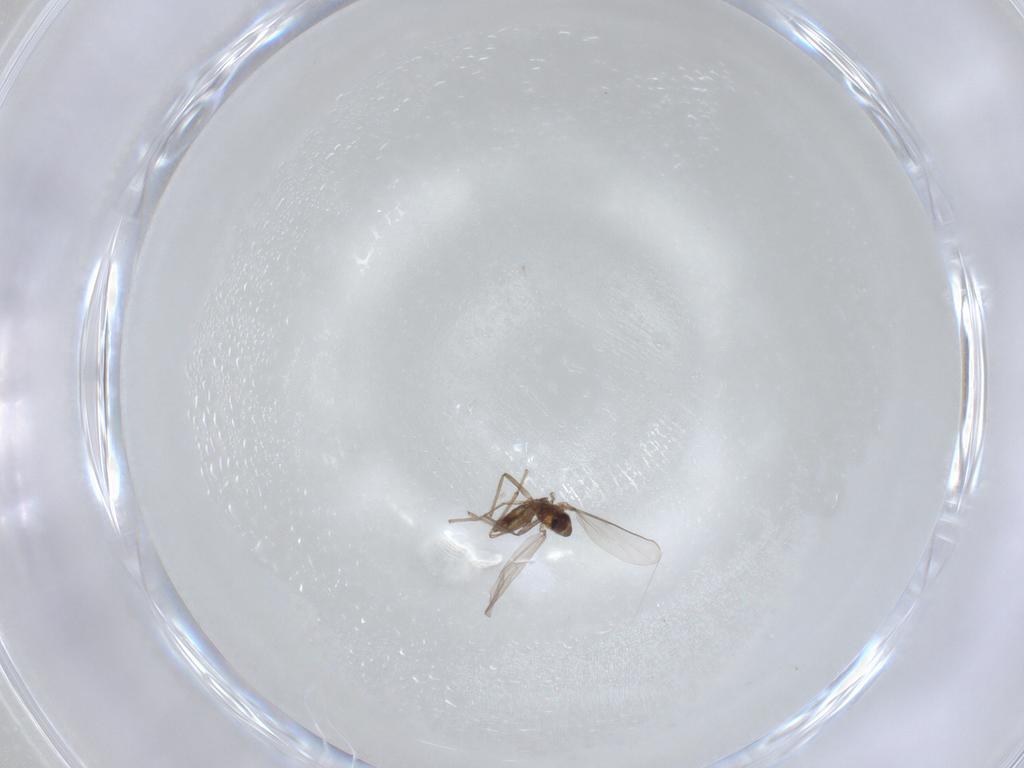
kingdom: Animalia
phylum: Arthropoda
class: Insecta
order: Diptera
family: Chironomidae
